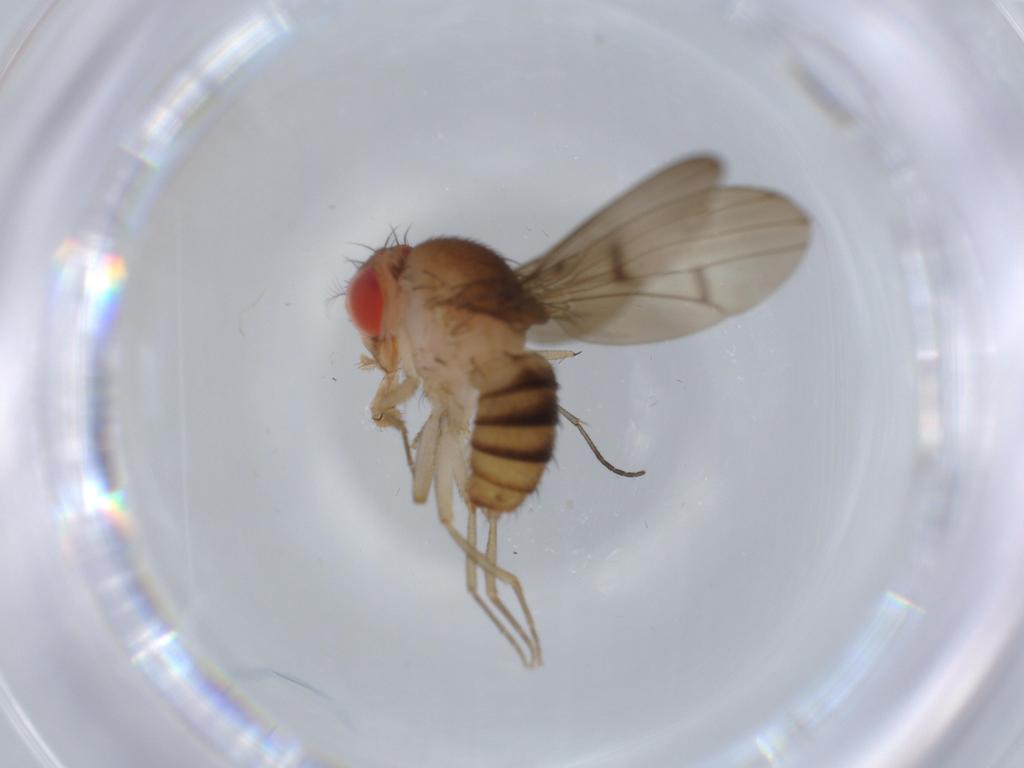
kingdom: Animalia
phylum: Arthropoda
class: Insecta
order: Diptera
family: Drosophilidae
